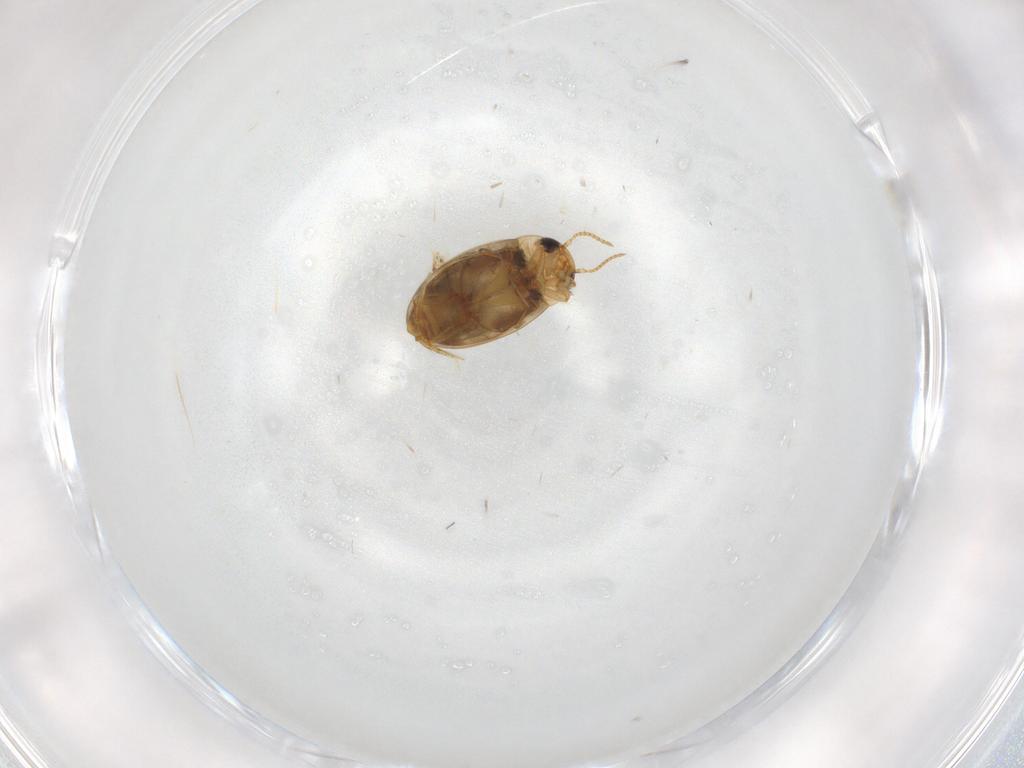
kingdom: Animalia
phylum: Arthropoda
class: Insecta
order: Coleoptera
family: Dytiscidae
